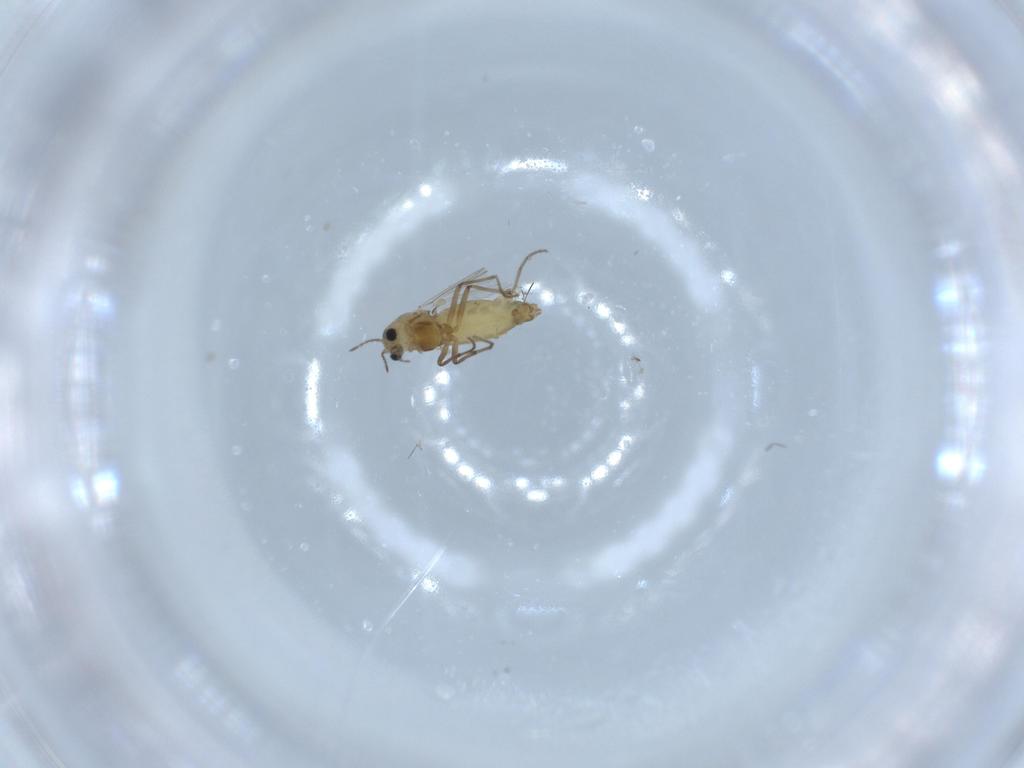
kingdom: Animalia
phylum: Arthropoda
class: Insecta
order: Diptera
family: Chironomidae
